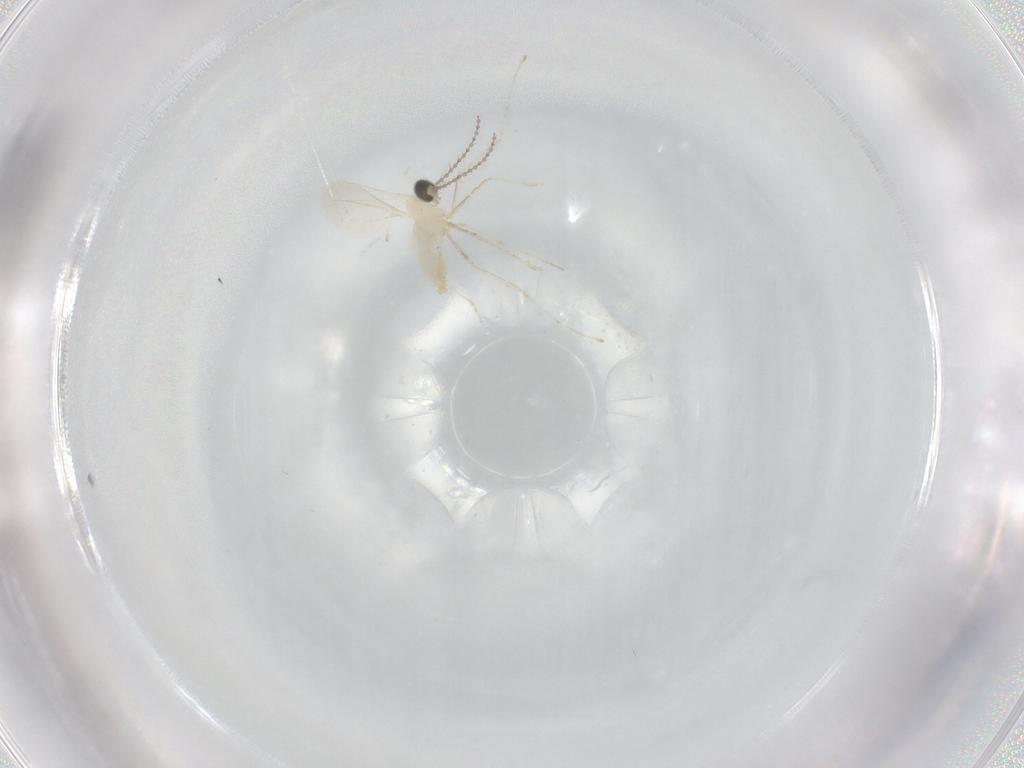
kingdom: Animalia
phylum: Arthropoda
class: Insecta
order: Diptera
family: Cecidomyiidae
